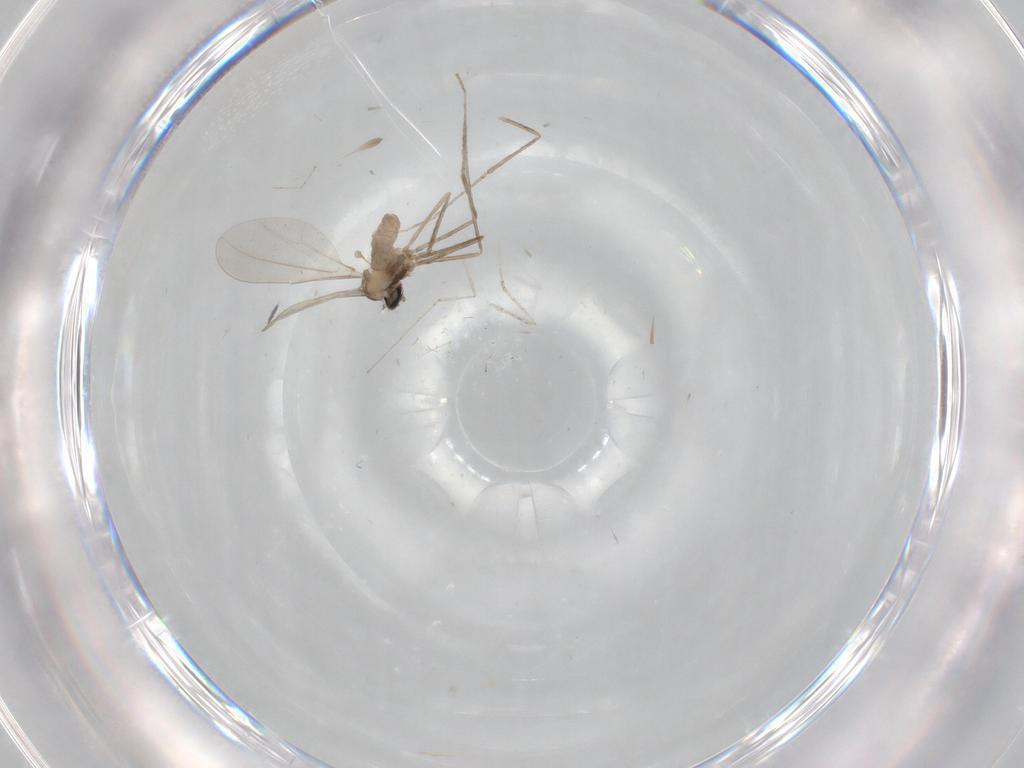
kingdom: Animalia
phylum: Arthropoda
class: Insecta
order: Diptera
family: Cecidomyiidae
